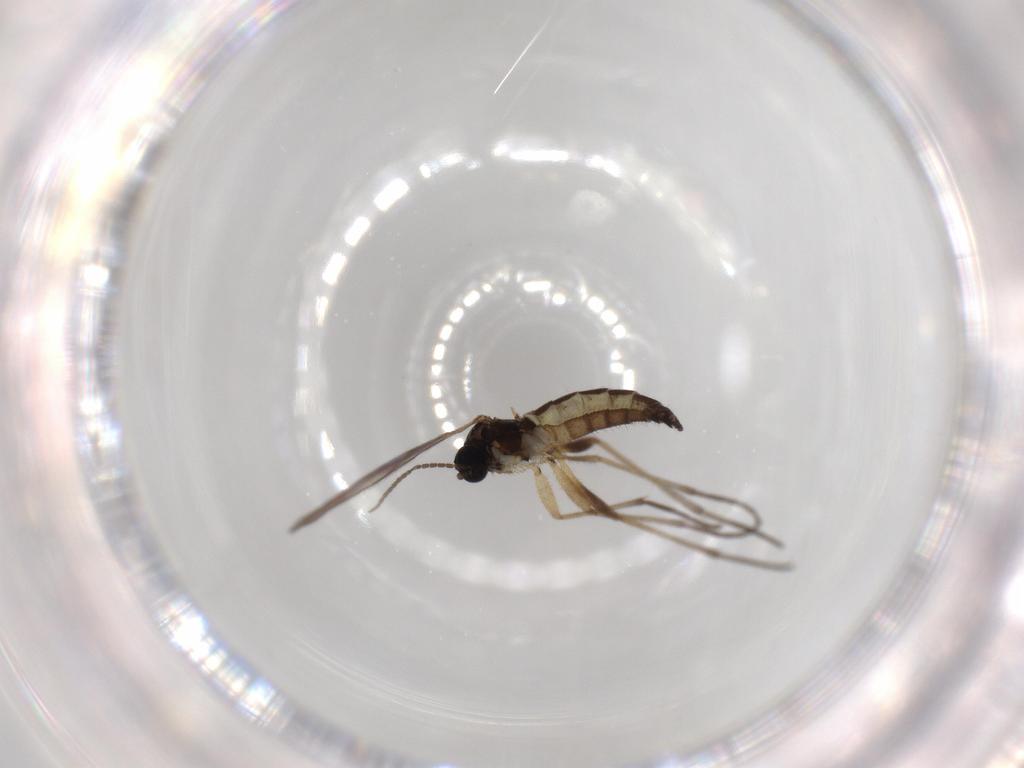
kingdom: Animalia
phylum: Arthropoda
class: Insecta
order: Diptera
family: Sciaridae
